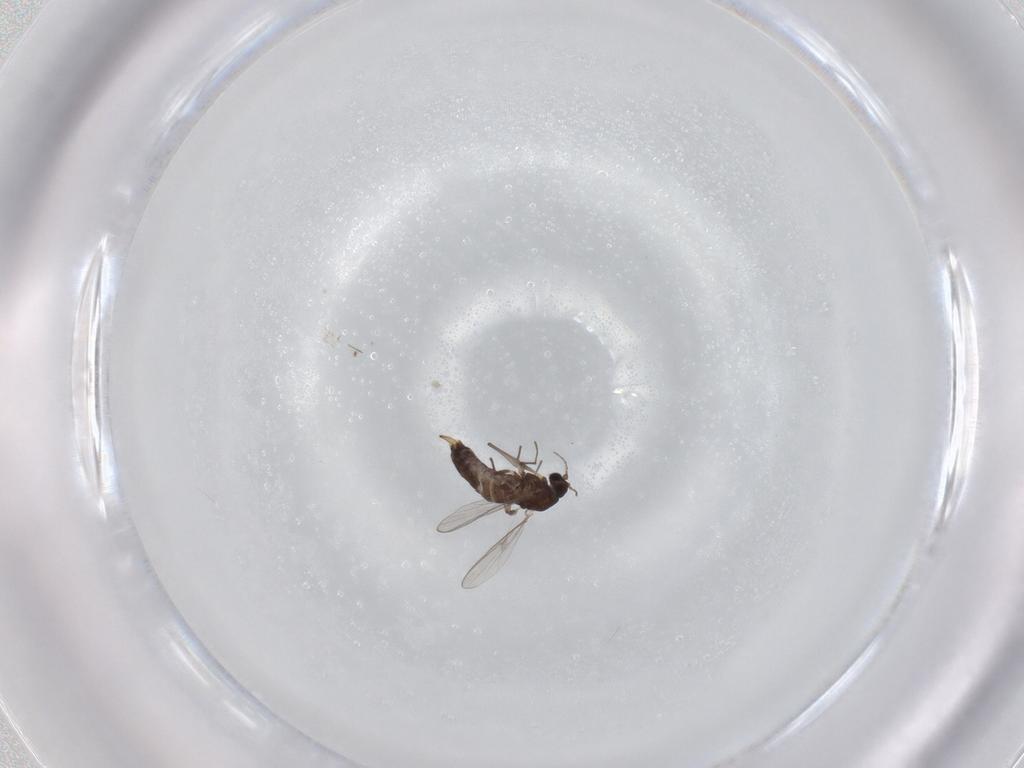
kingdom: Animalia
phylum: Arthropoda
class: Insecta
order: Diptera
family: Chironomidae
